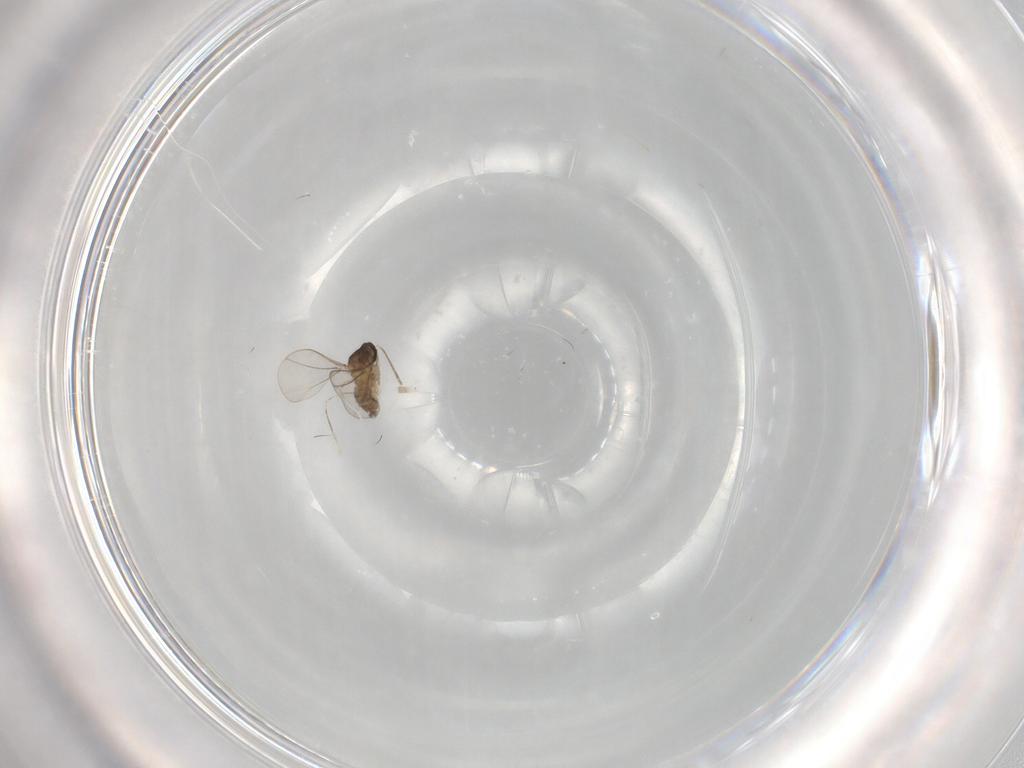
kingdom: Animalia
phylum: Arthropoda
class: Insecta
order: Diptera
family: Cecidomyiidae
